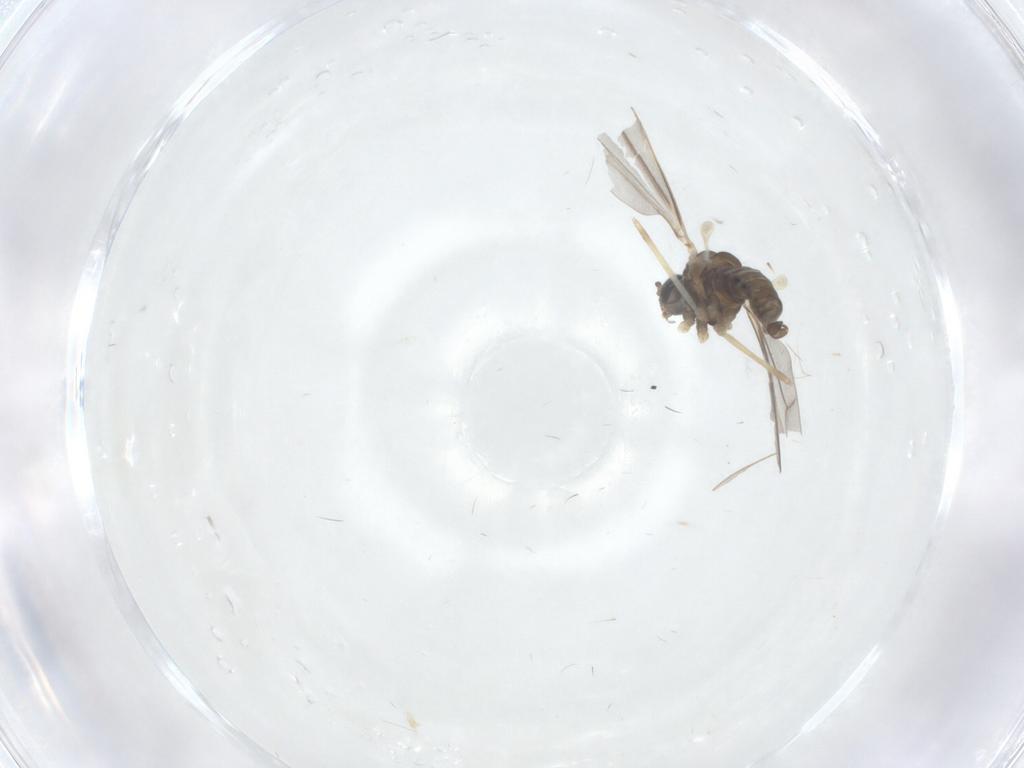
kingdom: Animalia
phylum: Arthropoda
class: Insecta
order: Diptera
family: Cecidomyiidae
